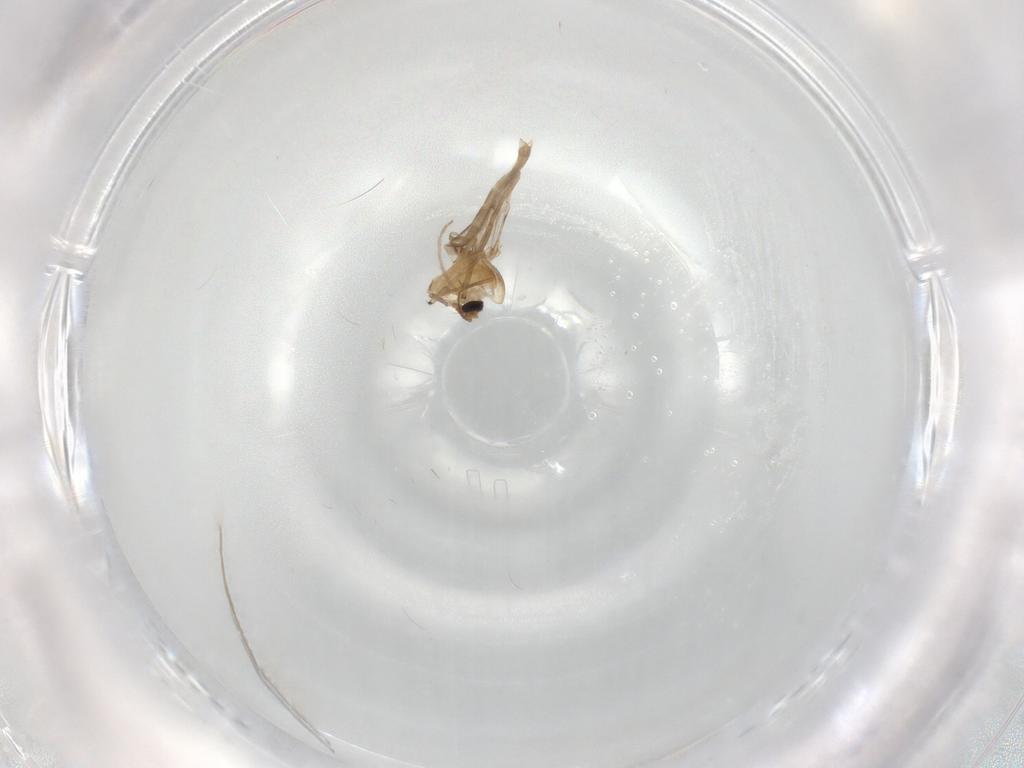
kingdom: Animalia
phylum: Arthropoda
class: Insecta
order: Diptera
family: Chironomidae
